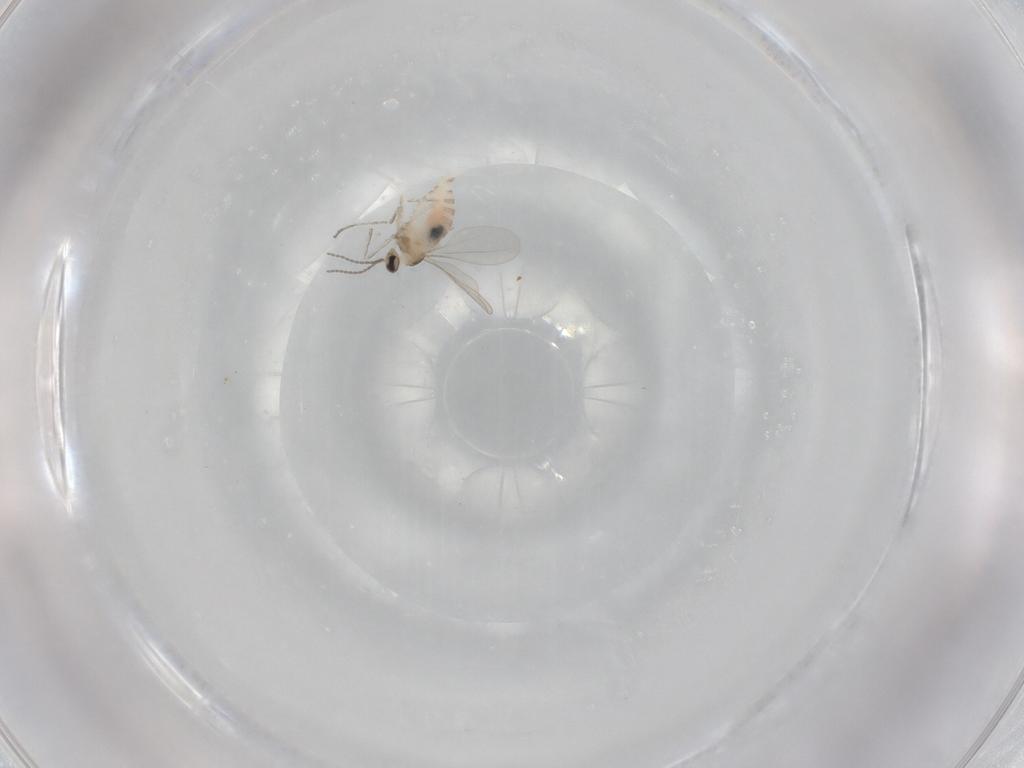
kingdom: Animalia
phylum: Arthropoda
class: Insecta
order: Diptera
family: Cecidomyiidae
